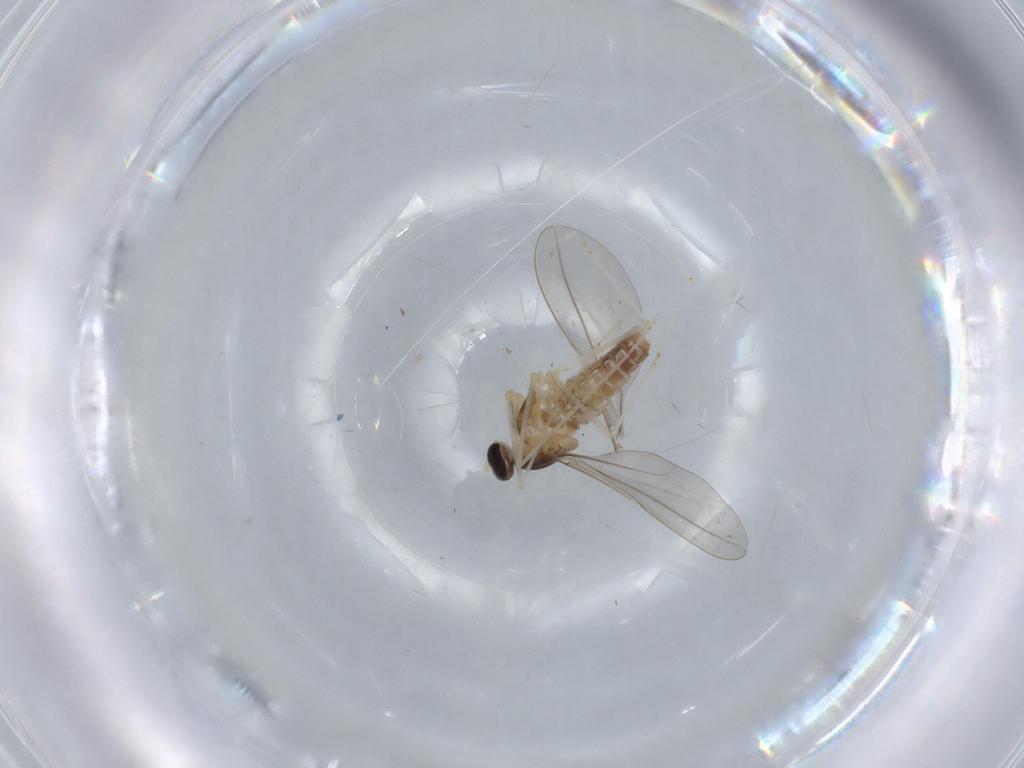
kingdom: Animalia
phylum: Arthropoda
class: Insecta
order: Diptera
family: Cecidomyiidae
